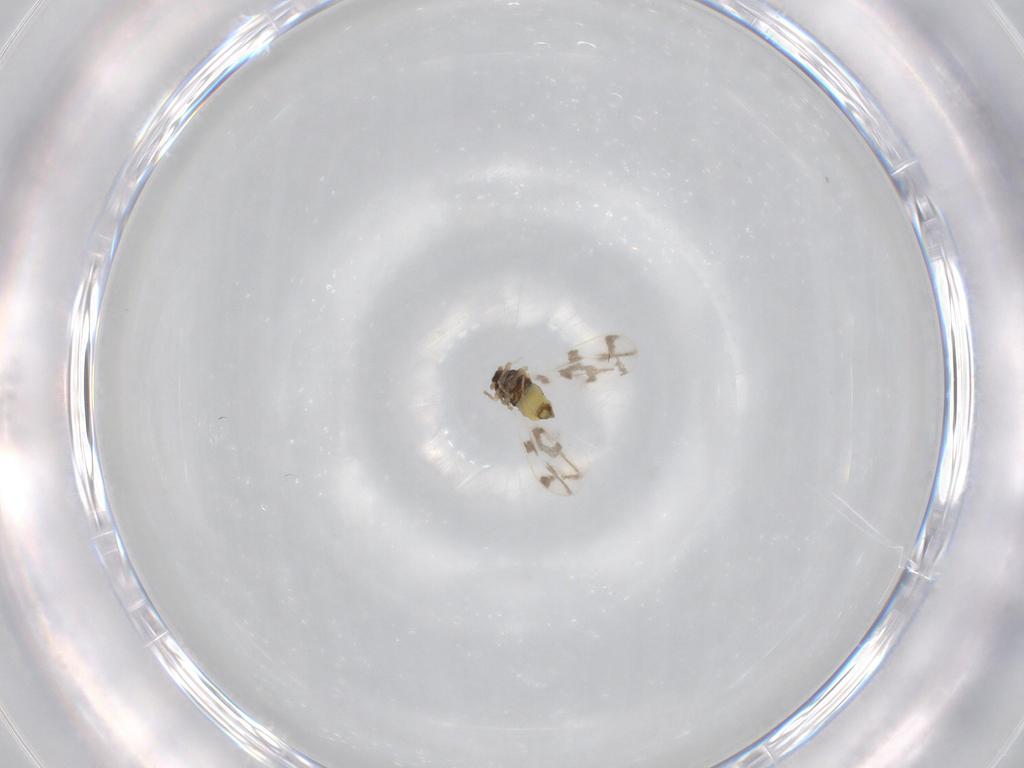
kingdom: Animalia
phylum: Arthropoda
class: Insecta
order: Hemiptera
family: Aleyrodidae
